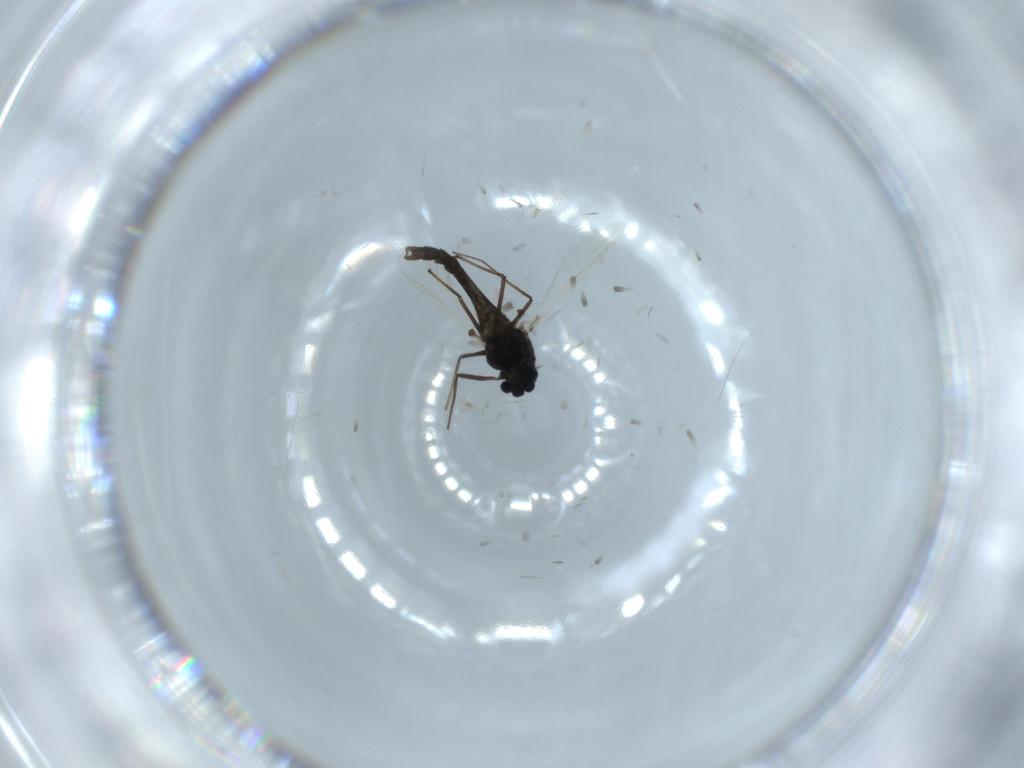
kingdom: Animalia
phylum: Arthropoda
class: Insecta
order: Diptera
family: Chironomidae
